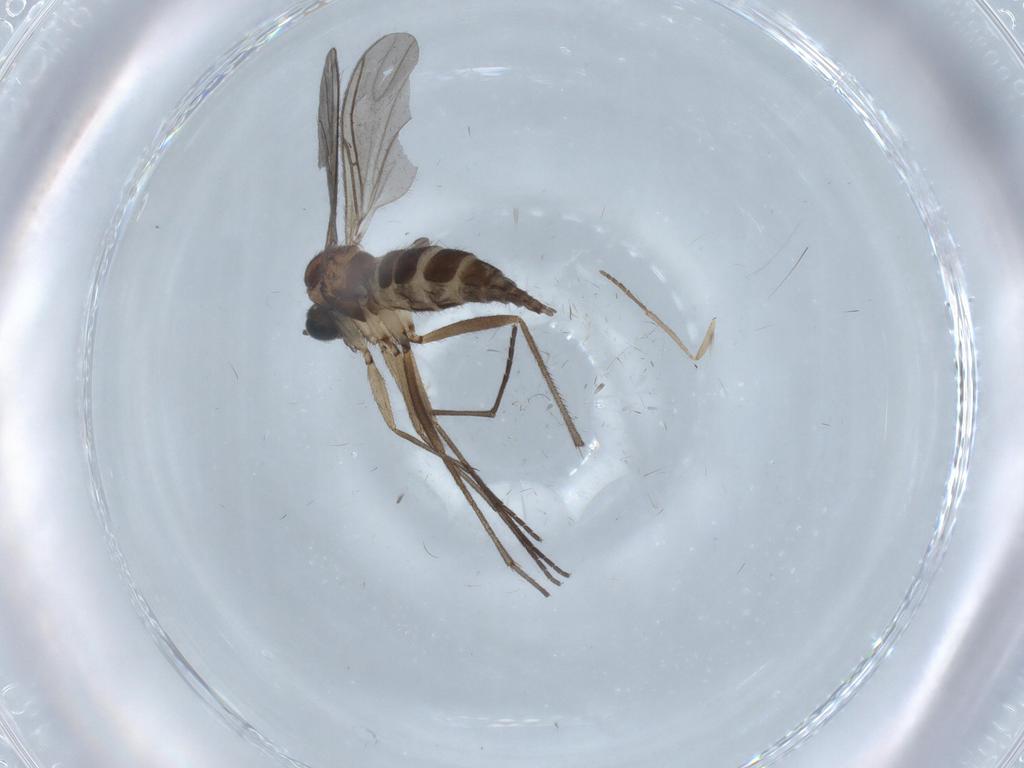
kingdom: Animalia
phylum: Arthropoda
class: Insecta
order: Diptera
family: Sciaridae
